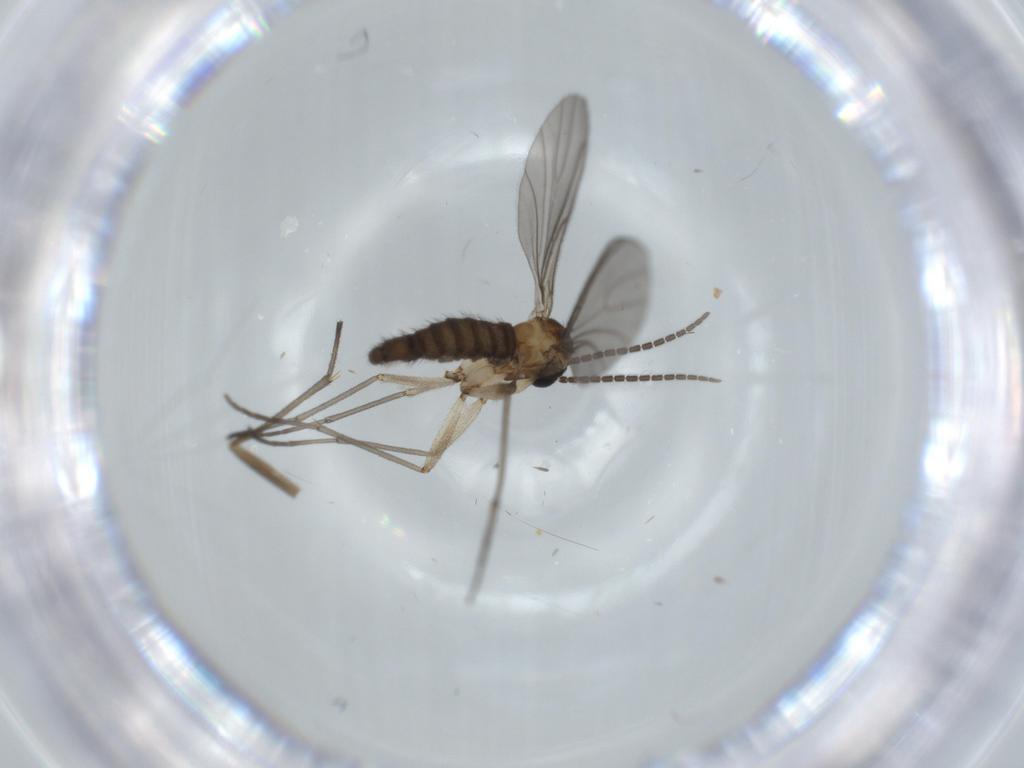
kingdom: Animalia
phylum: Arthropoda
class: Insecta
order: Diptera
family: Sciaridae
